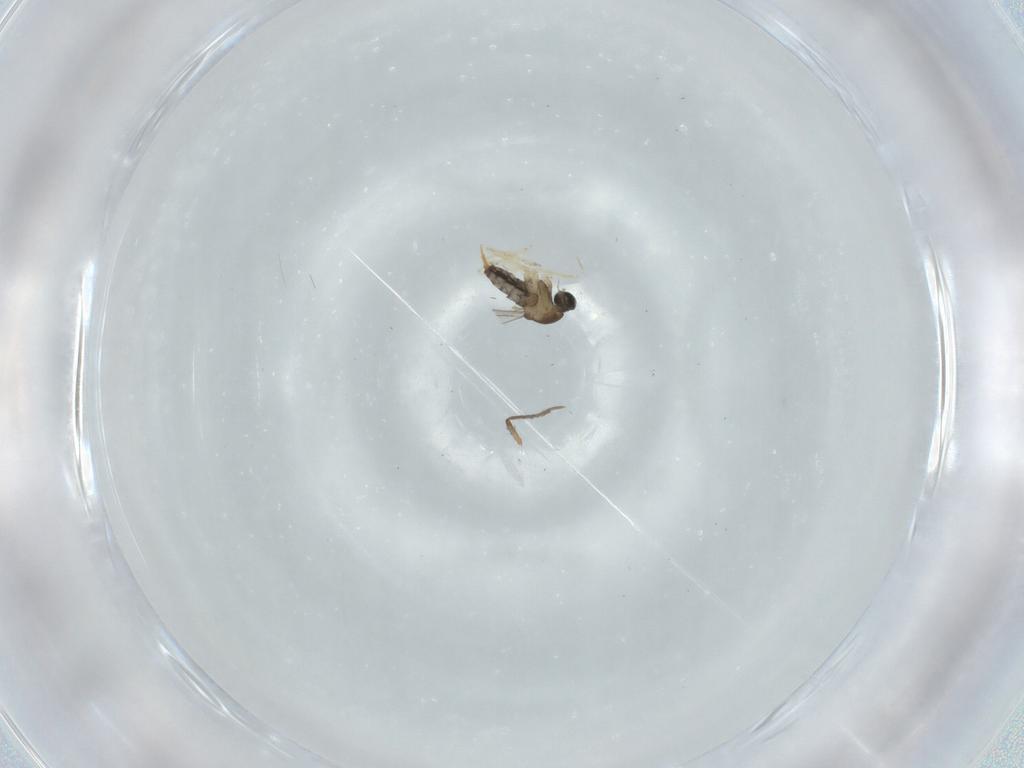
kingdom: Animalia
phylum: Arthropoda
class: Insecta
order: Diptera
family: Cecidomyiidae
